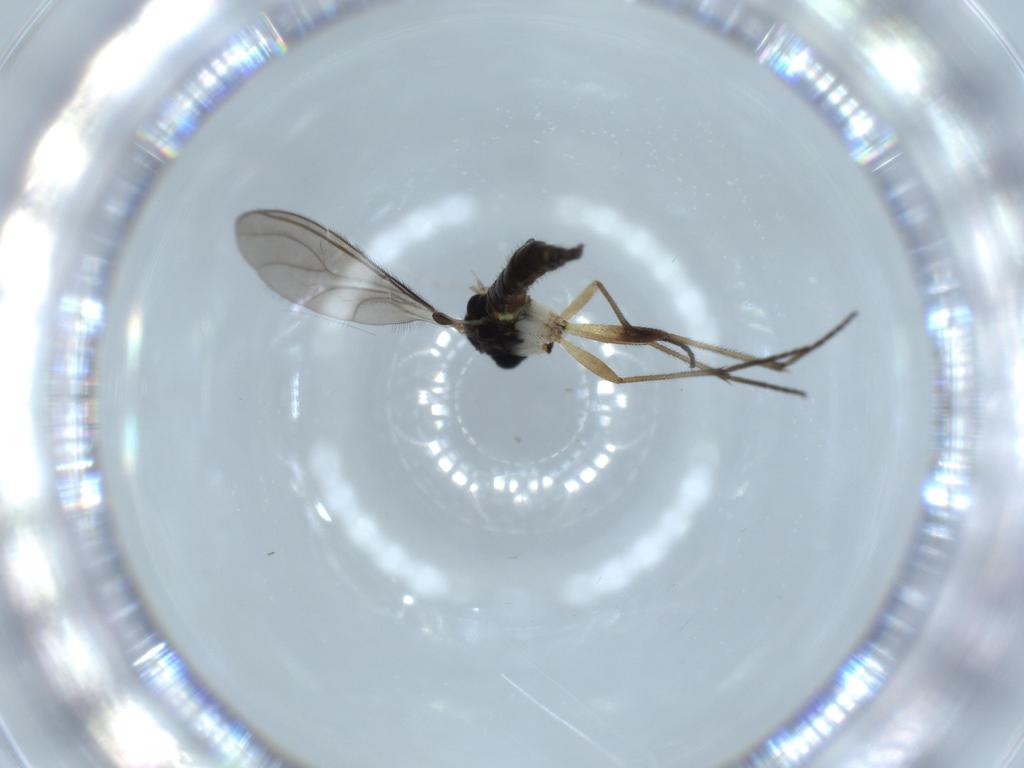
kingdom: Animalia
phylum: Arthropoda
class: Insecta
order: Diptera
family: Sciaridae
